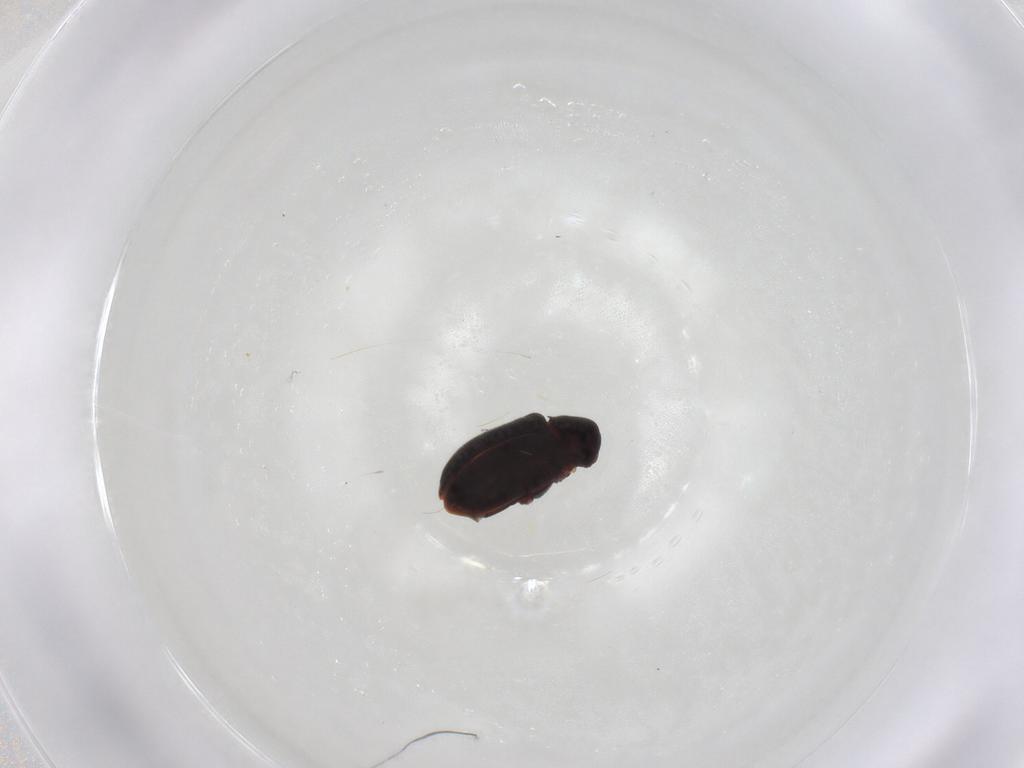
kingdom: Animalia
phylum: Arthropoda
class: Insecta
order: Coleoptera
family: Ptinidae
